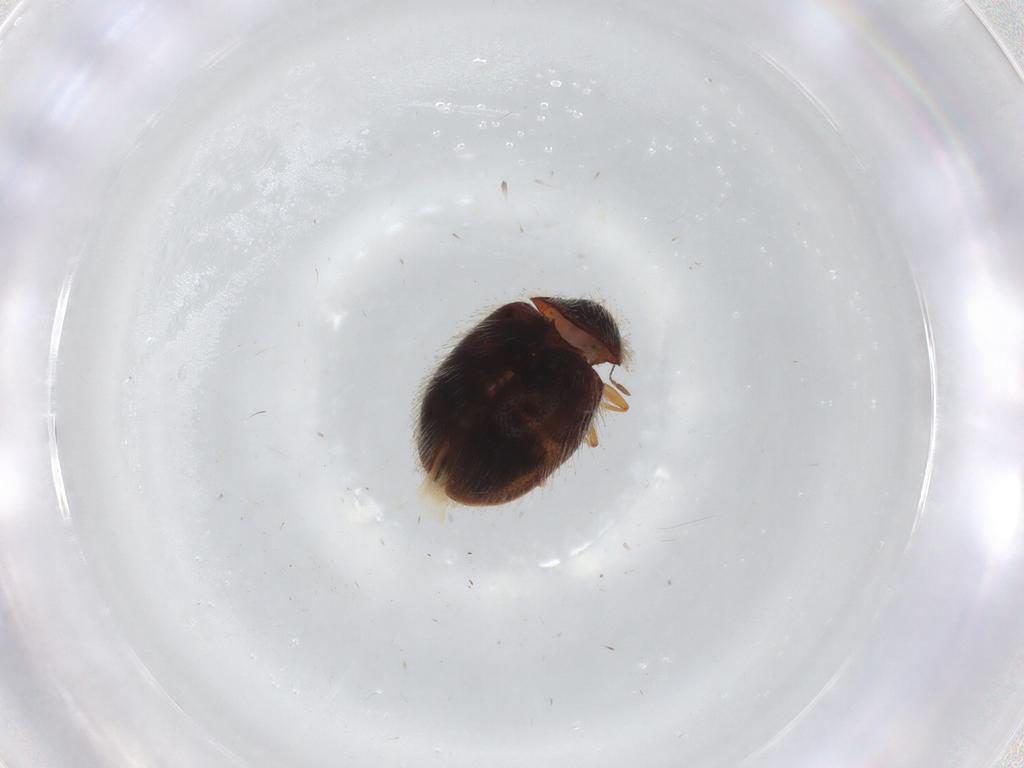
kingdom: Animalia
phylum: Arthropoda
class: Insecta
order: Coleoptera
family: Dermestidae
